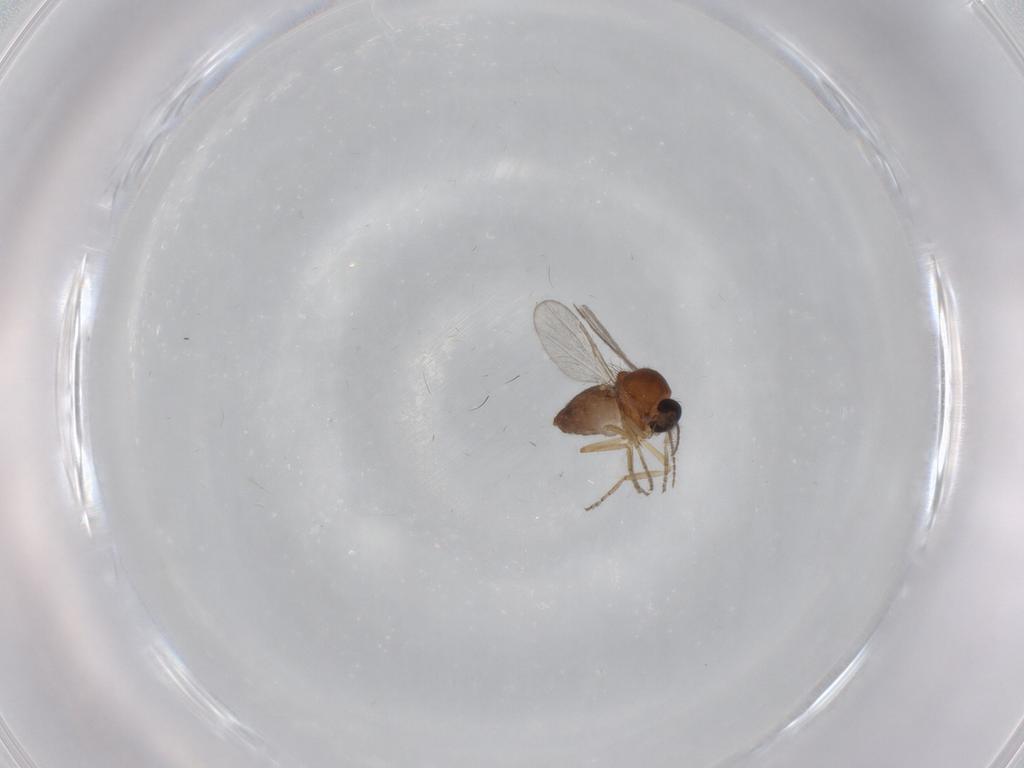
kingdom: Animalia
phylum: Arthropoda
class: Insecta
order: Diptera
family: Ceratopogonidae
